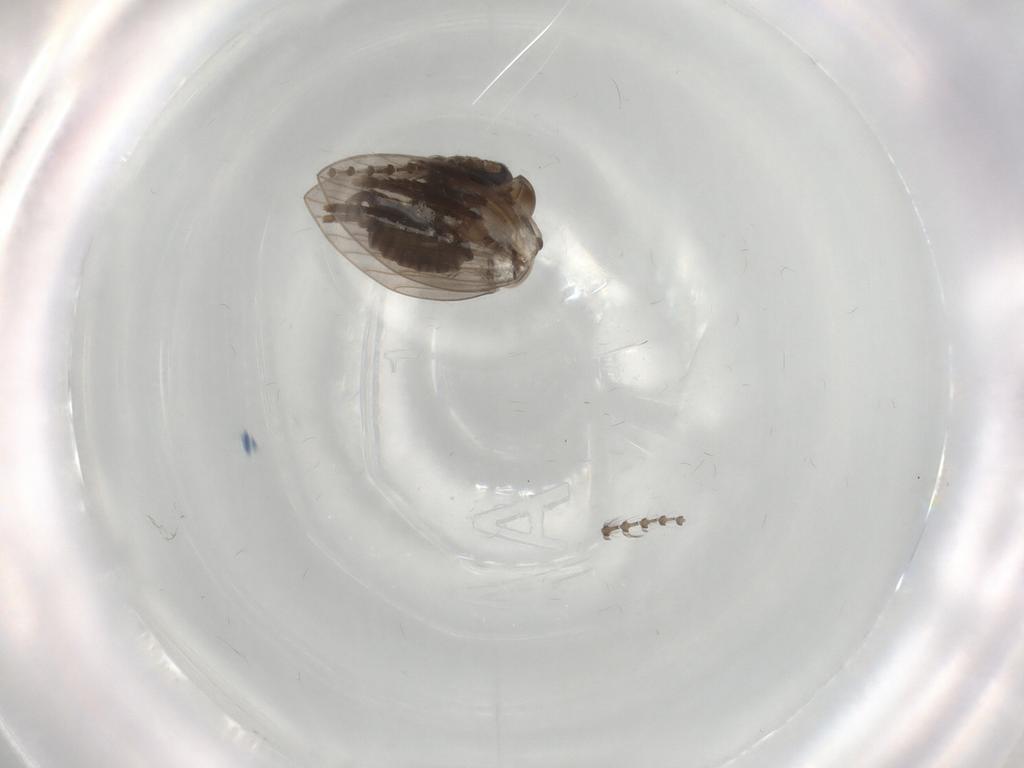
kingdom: Animalia
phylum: Arthropoda
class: Insecta
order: Diptera
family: Psychodidae
